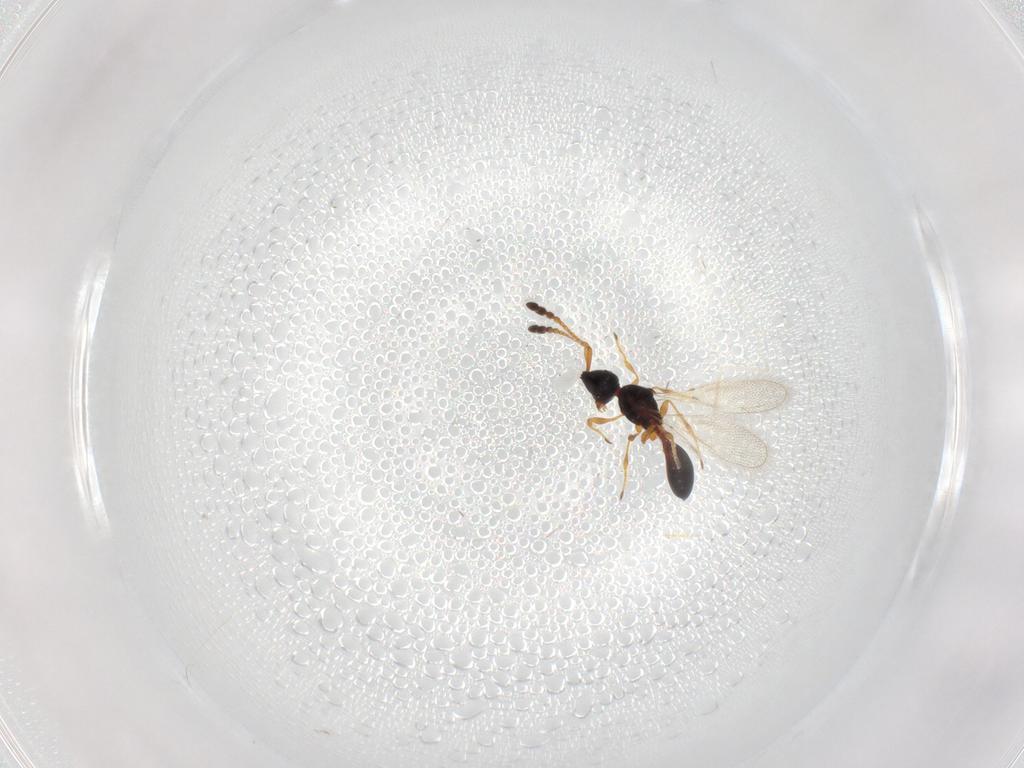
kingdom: Animalia
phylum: Arthropoda
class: Insecta
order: Hymenoptera
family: Diapriidae
